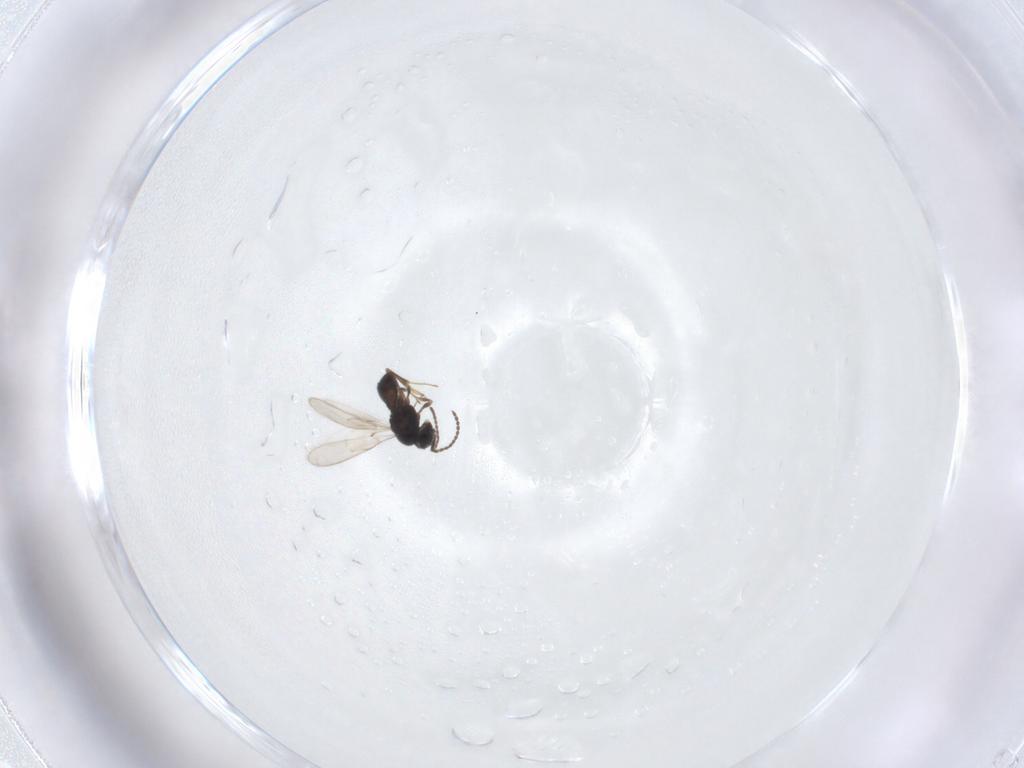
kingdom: Animalia
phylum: Arthropoda
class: Insecta
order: Hymenoptera
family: Scelionidae
